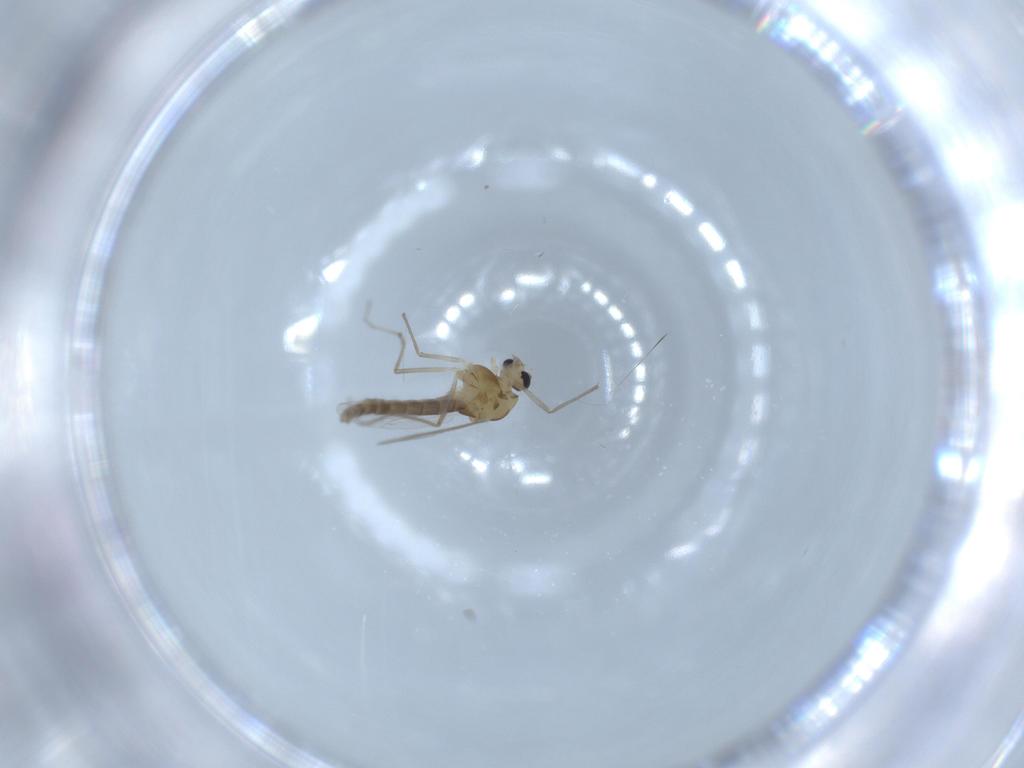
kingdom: Animalia
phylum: Arthropoda
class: Insecta
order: Diptera
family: Chironomidae
